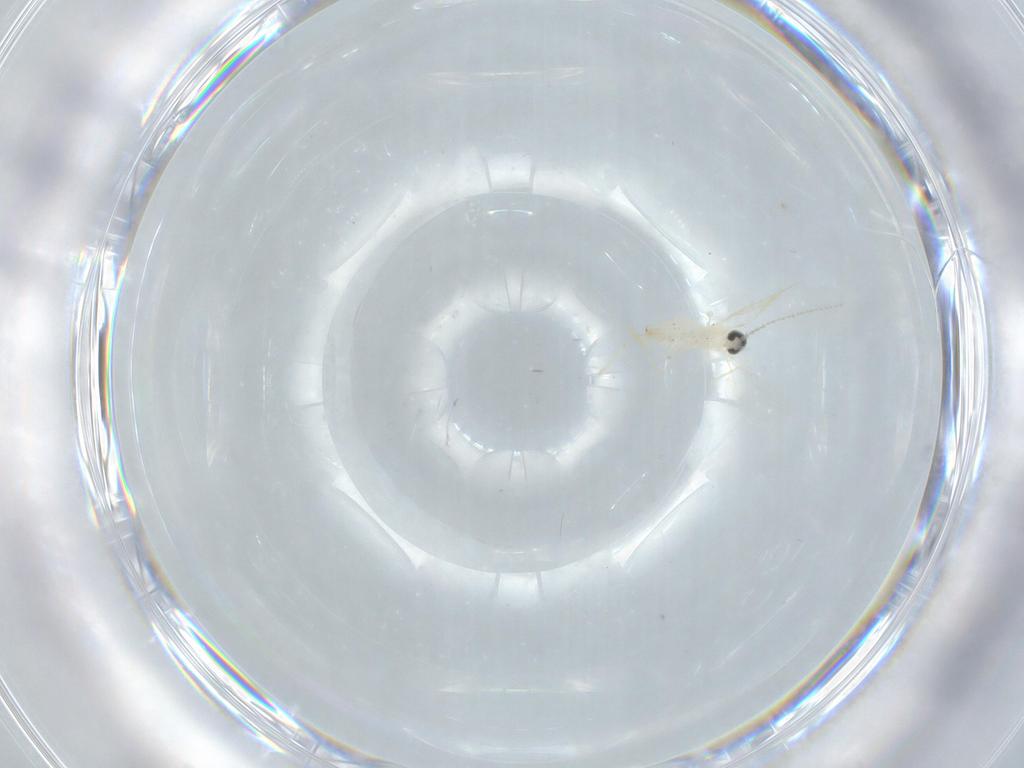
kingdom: Animalia
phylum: Arthropoda
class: Insecta
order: Diptera
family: Cecidomyiidae
